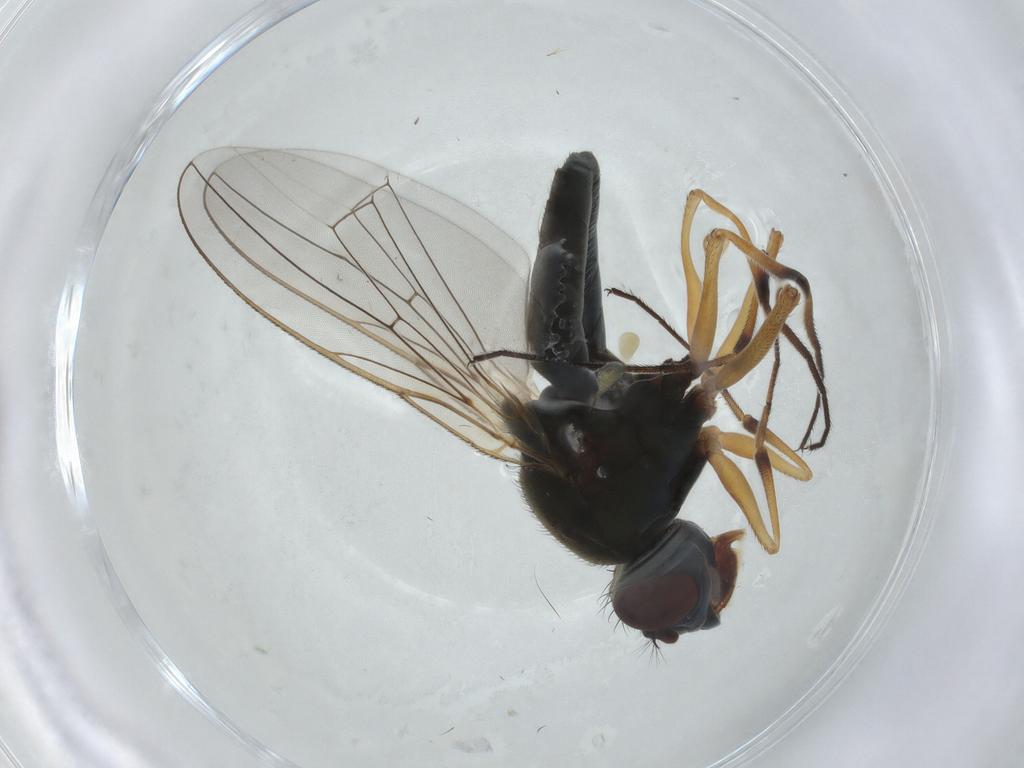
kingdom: Animalia
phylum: Arthropoda
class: Insecta
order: Diptera
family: Ephydridae
